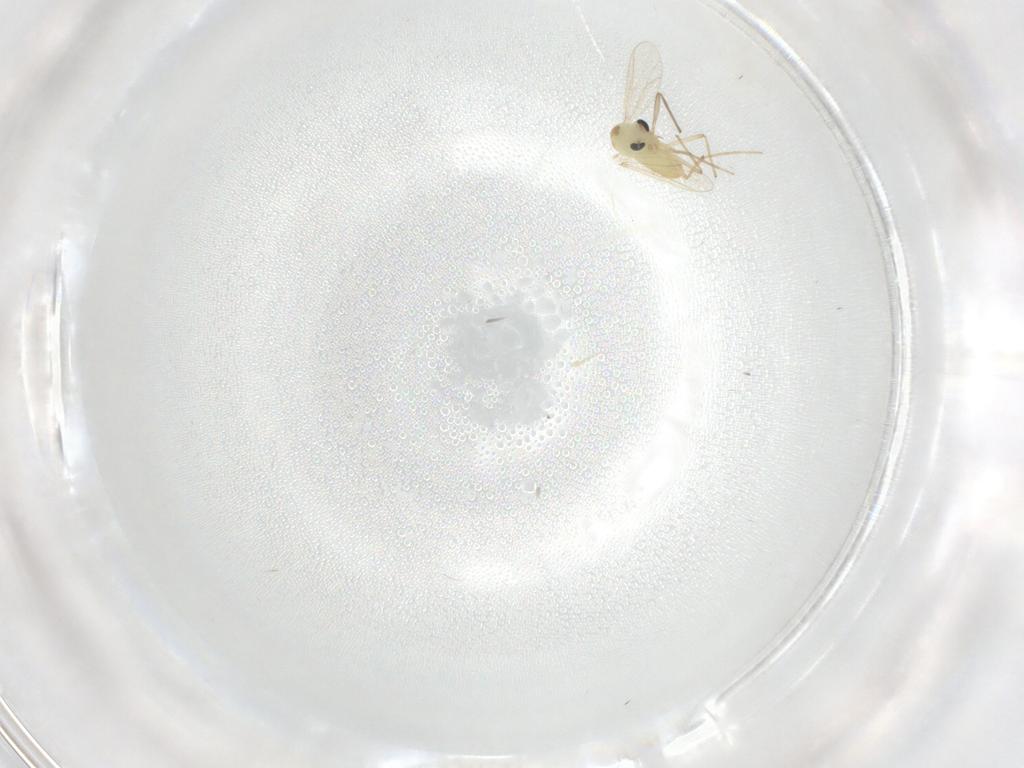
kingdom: Animalia
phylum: Arthropoda
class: Insecta
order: Diptera
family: Chironomidae
